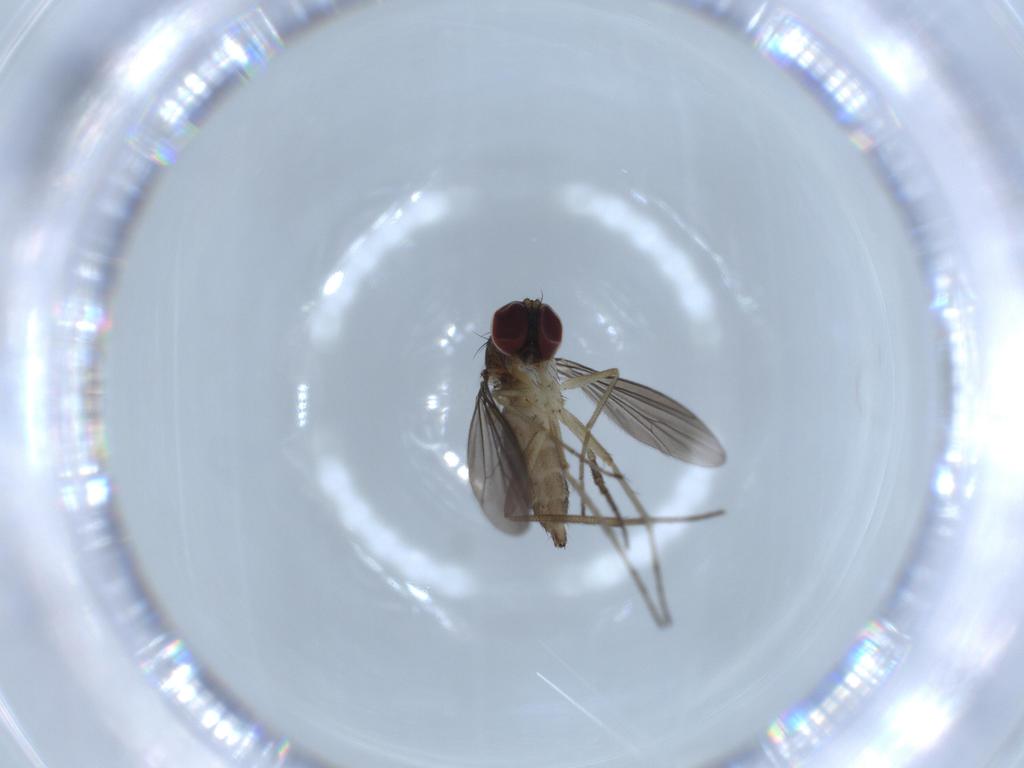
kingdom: Animalia
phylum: Arthropoda
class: Insecta
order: Diptera
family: Dolichopodidae
